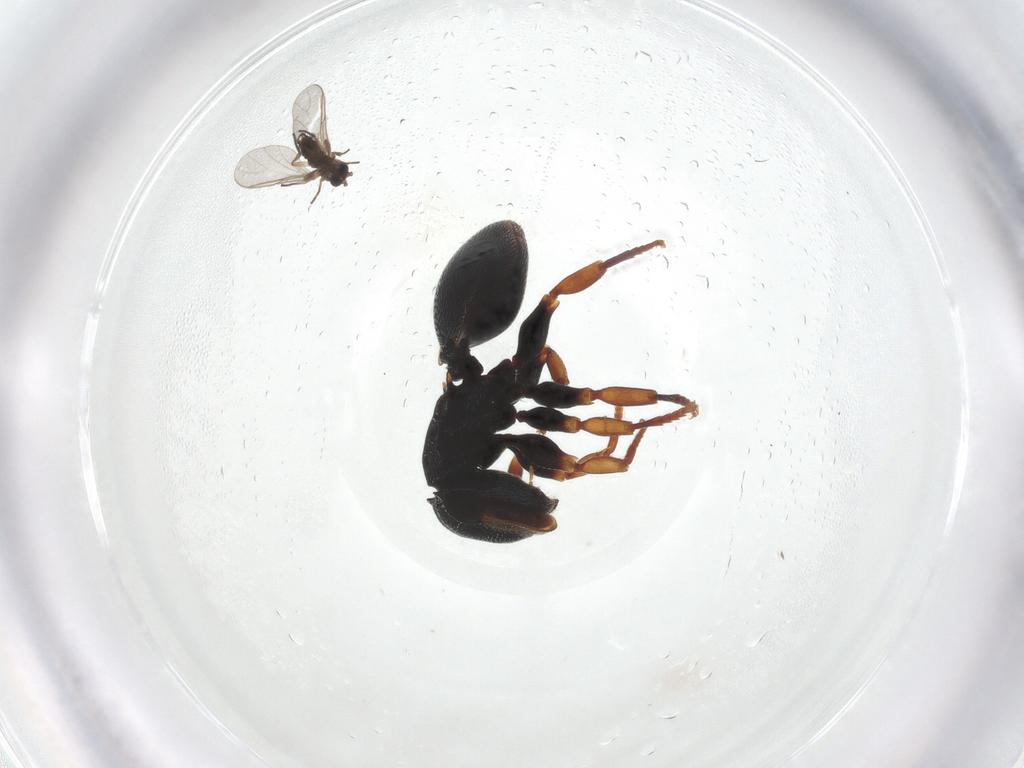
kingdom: Animalia
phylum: Arthropoda
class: Insecta
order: Diptera
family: Sciaridae
